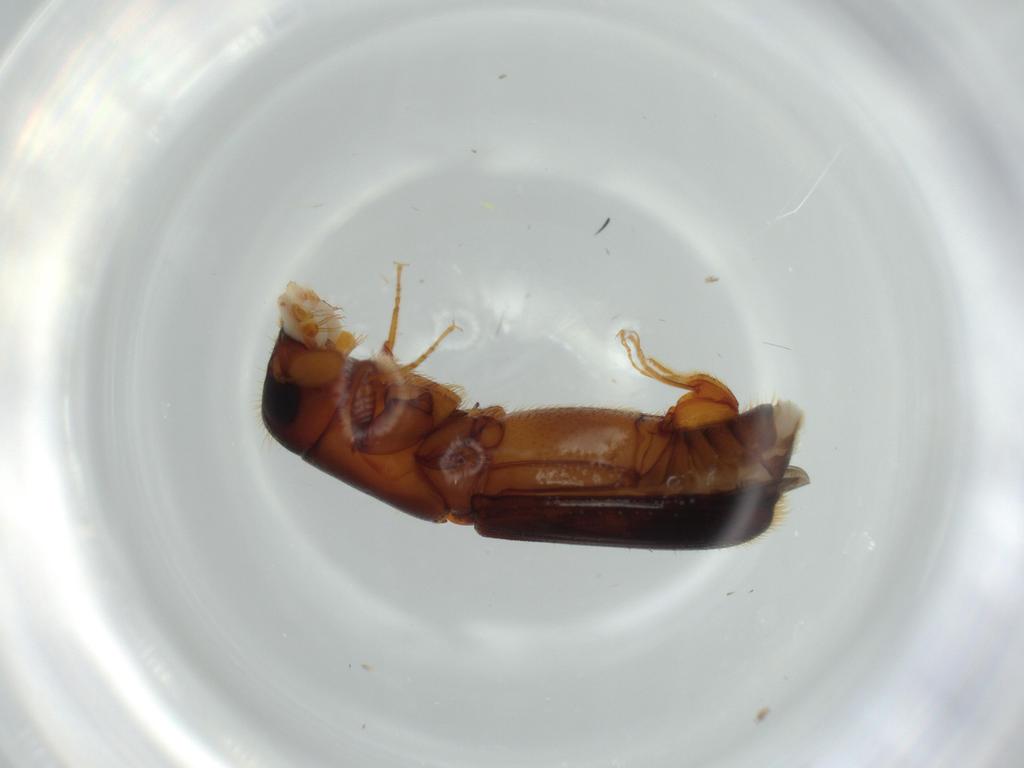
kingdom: Animalia
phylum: Arthropoda
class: Insecta
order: Coleoptera
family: Curculionidae
